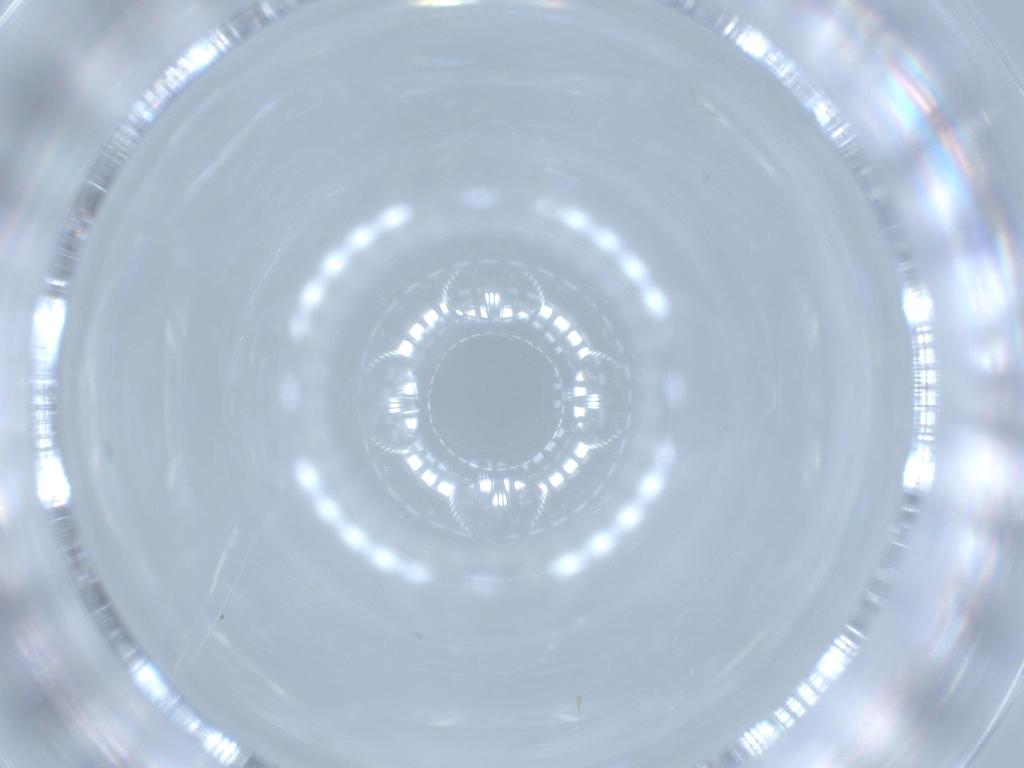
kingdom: Animalia
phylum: Arthropoda
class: Insecta
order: Hemiptera
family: Aleyrodidae
